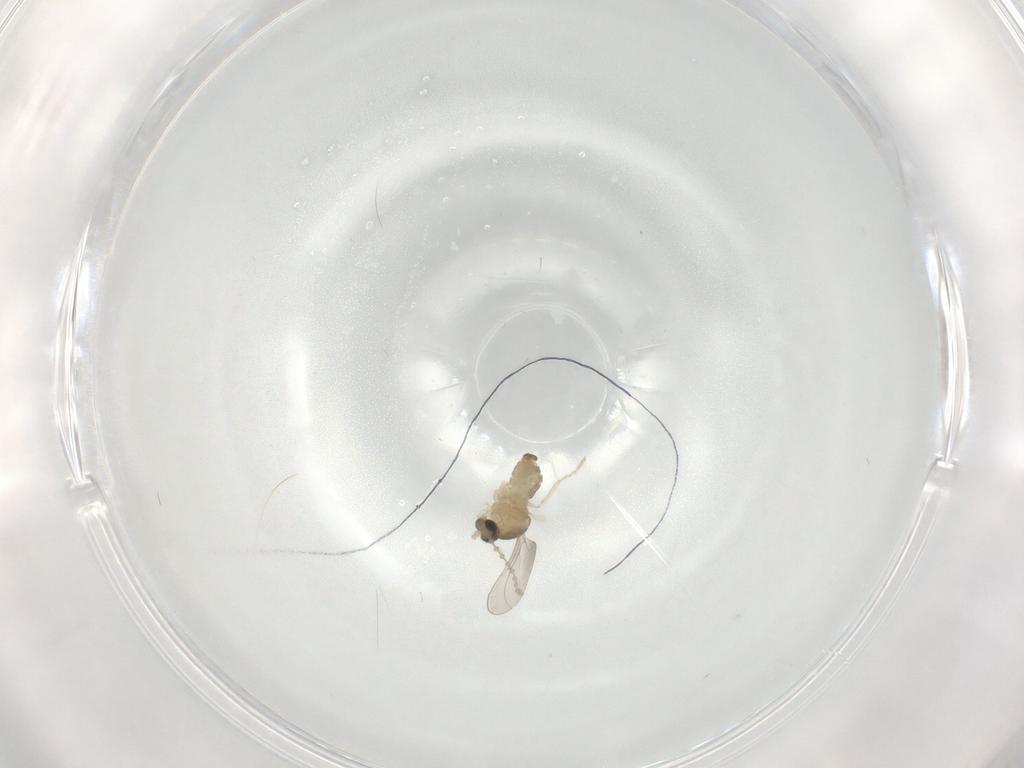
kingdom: Animalia
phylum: Arthropoda
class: Insecta
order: Diptera
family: Cecidomyiidae
